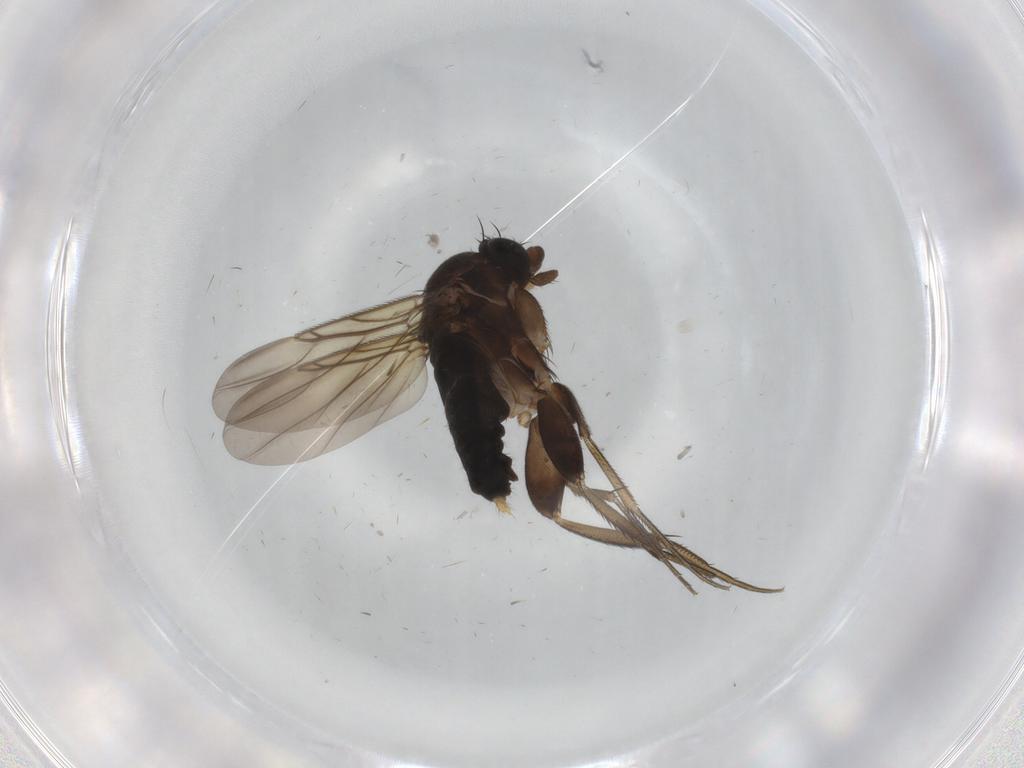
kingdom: Animalia
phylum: Arthropoda
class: Insecta
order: Diptera
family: Phoridae
